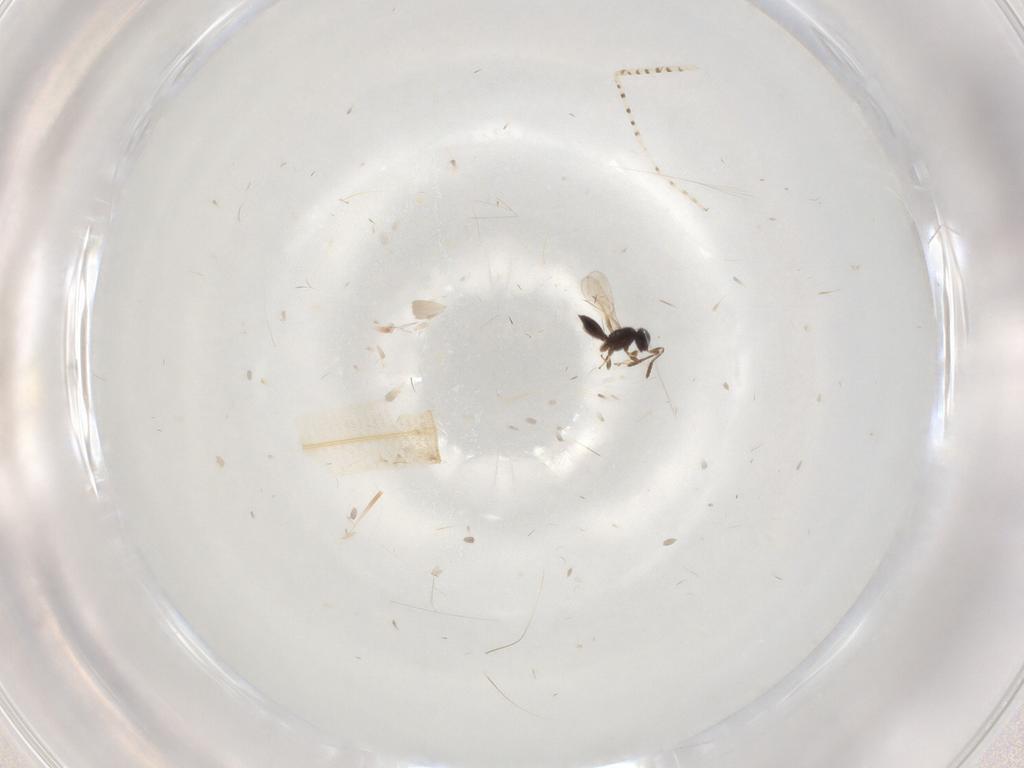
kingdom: Animalia
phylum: Arthropoda
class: Insecta
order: Hymenoptera
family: Scelionidae
